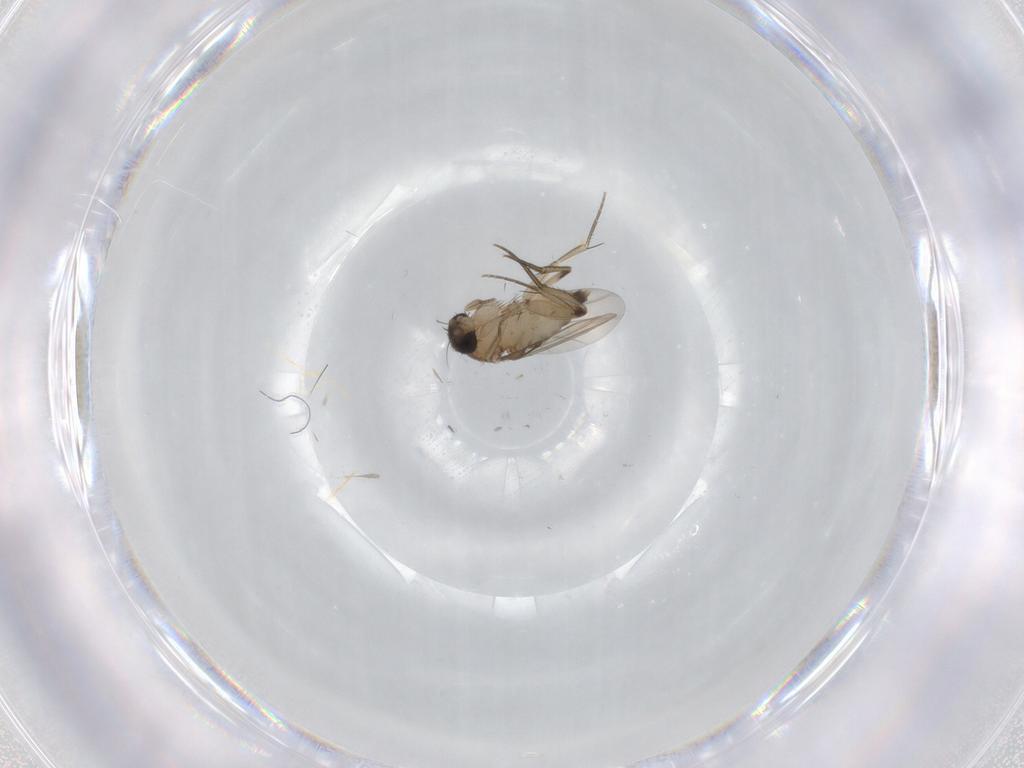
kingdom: Animalia
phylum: Arthropoda
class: Insecta
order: Diptera
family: Phoridae
